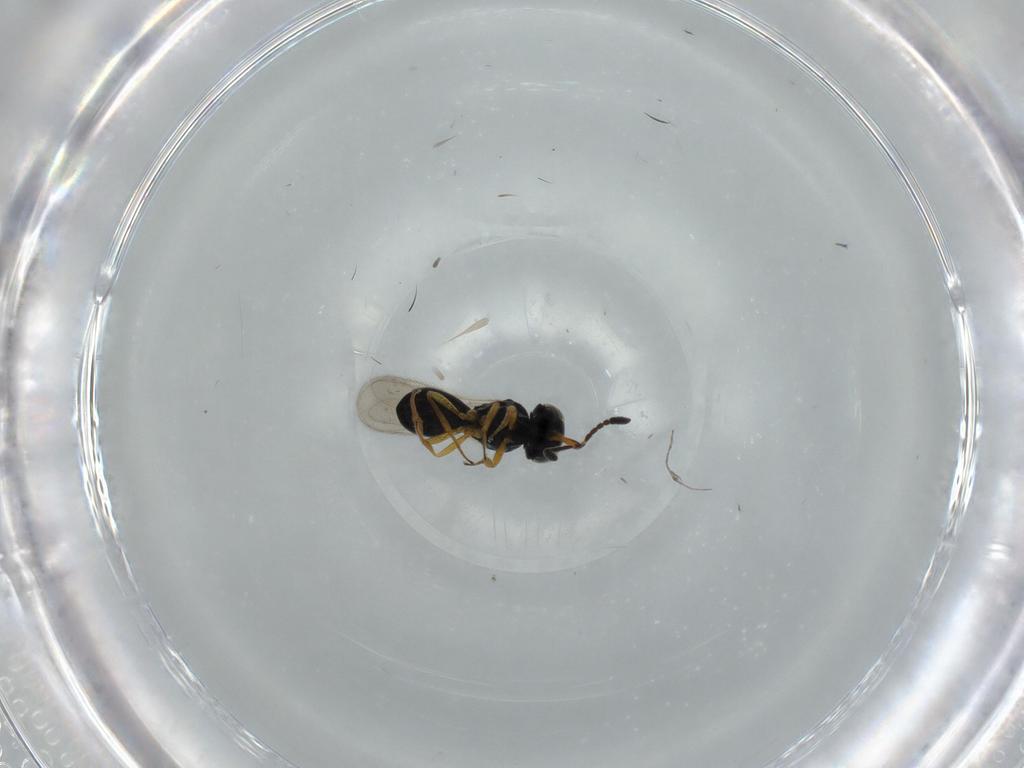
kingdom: Animalia
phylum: Arthropoda
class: Insecta
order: Hymenoptera
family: Scelionidae
